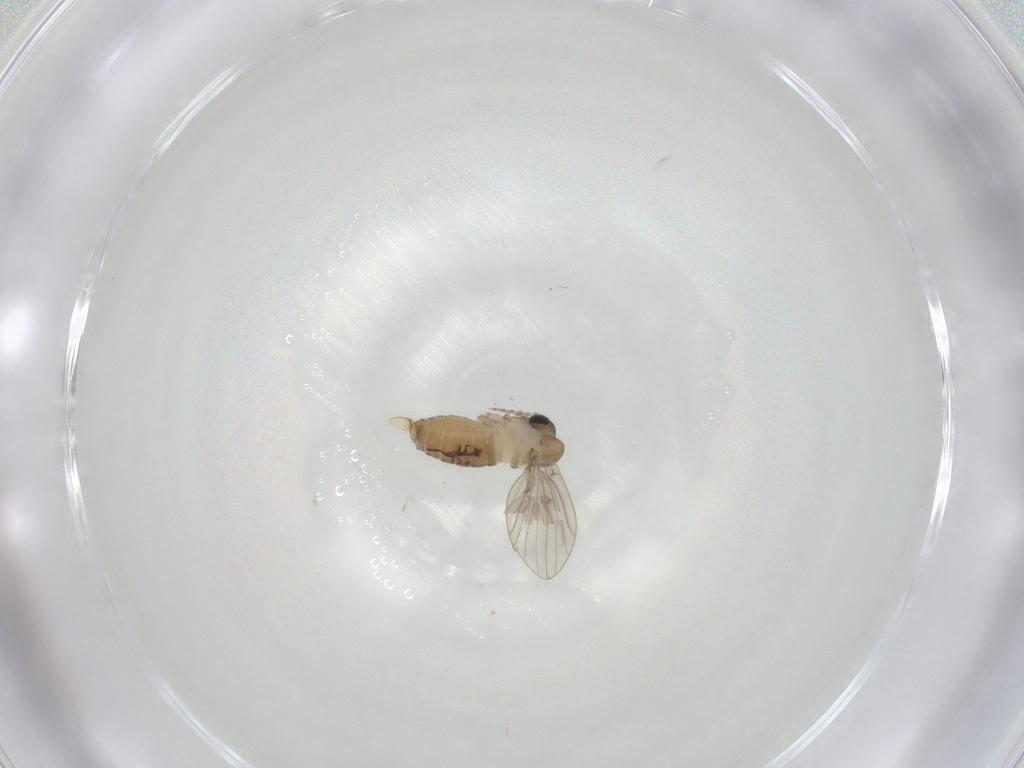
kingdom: Animalia
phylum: Arthropoda
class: Insecta
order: Diptera
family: Psychodidae
